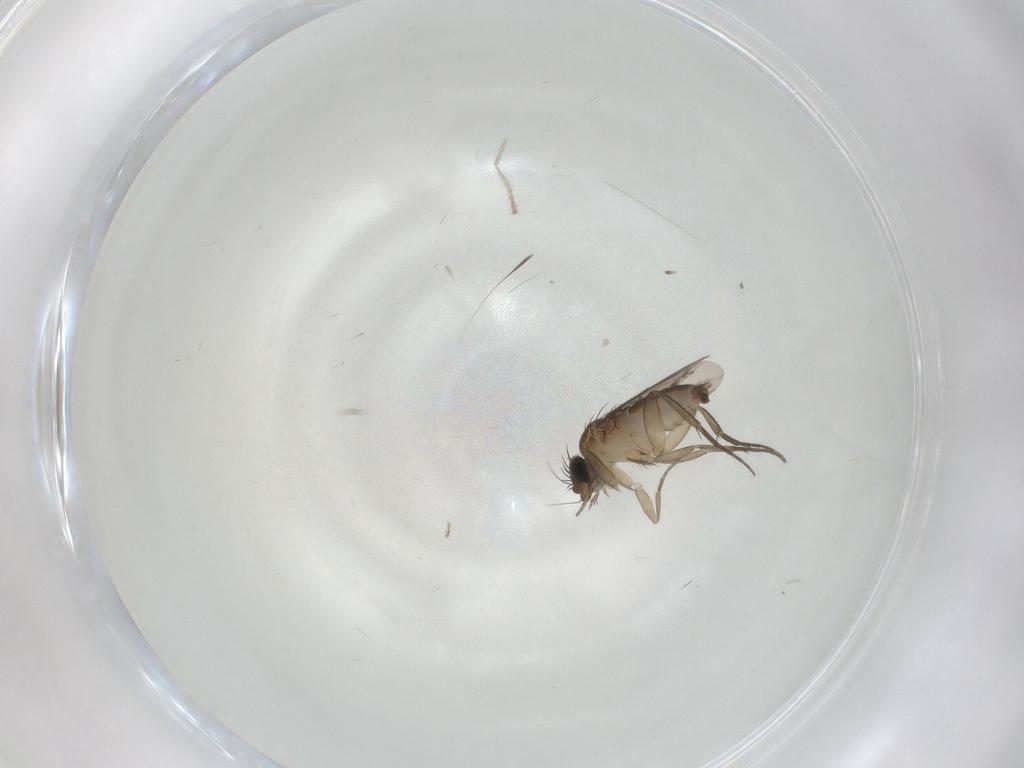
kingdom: Animalia
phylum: Arthropoda
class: Insecta
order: Diptera
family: Phoridae
